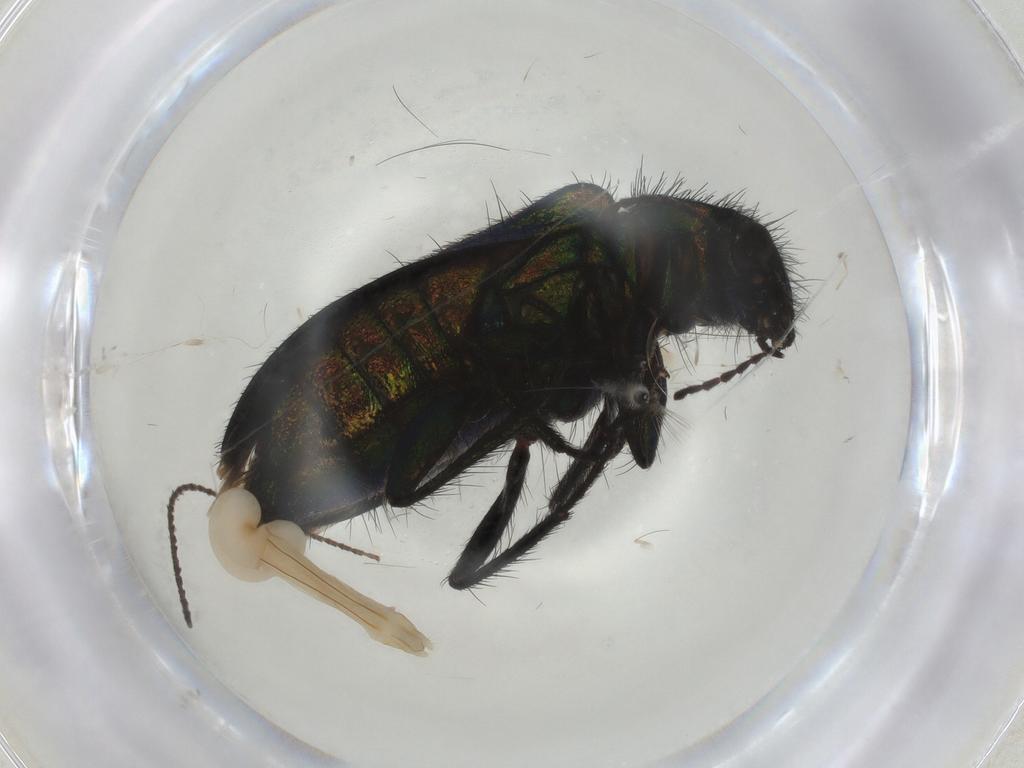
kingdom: Animalia
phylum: Arthropoda
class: Insecta
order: Coleoptera
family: Melyridae
